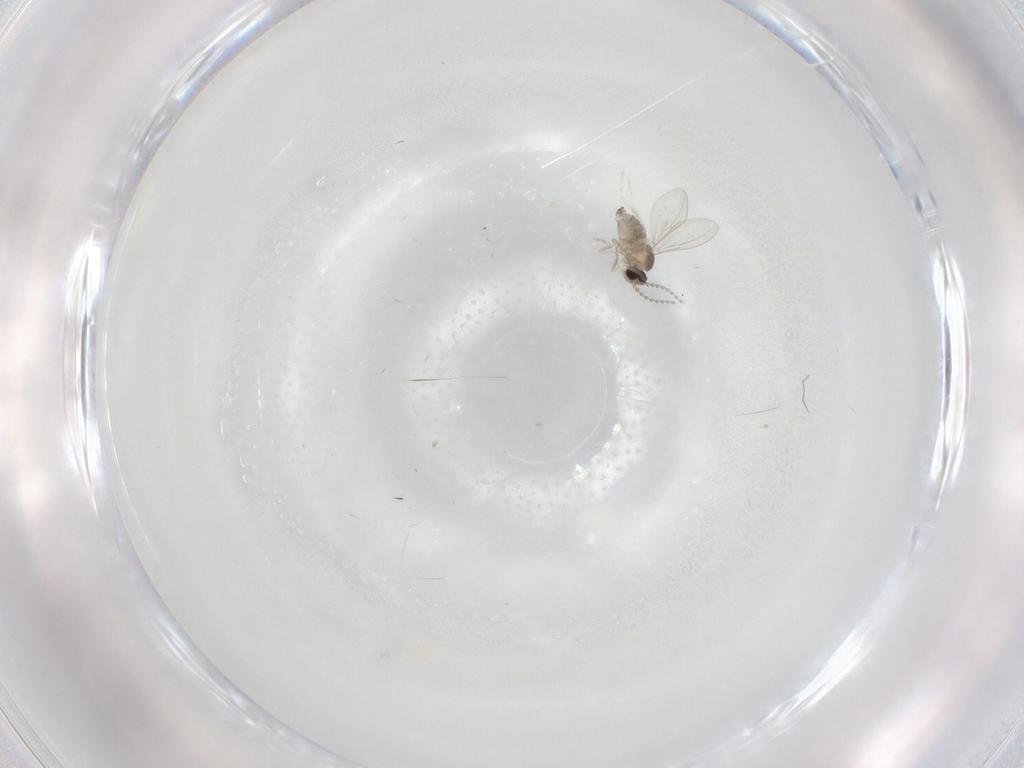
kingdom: Animalia
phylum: Arthropoda
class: Insecta
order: Diptera
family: Cecidomyiidae
